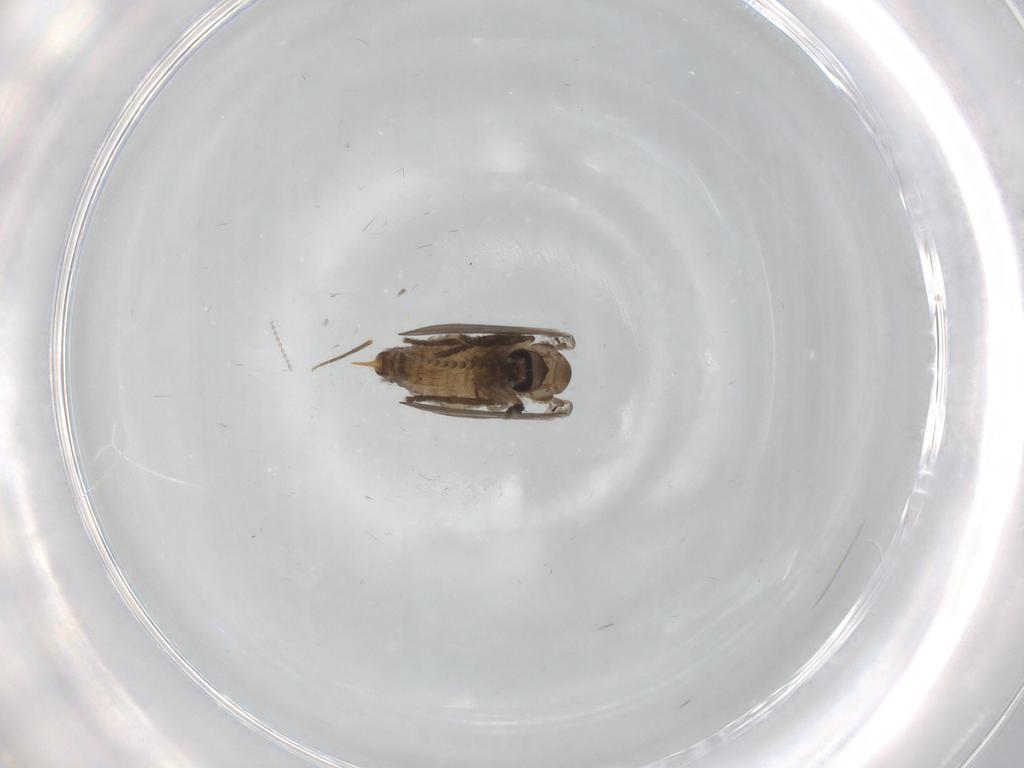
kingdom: Animalia
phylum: Arthropoda
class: Insecta
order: Diptera
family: Psychodidae
